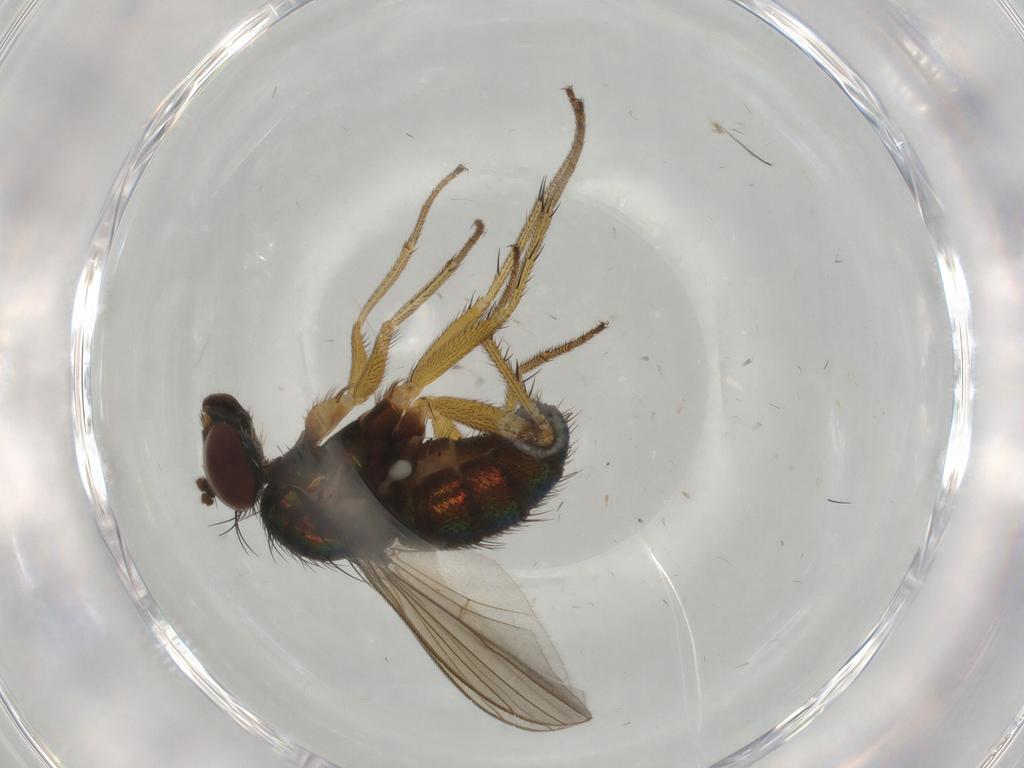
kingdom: Animalia
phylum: Arthropoda
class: Insecta
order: Diptera
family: Dolichopodidae
